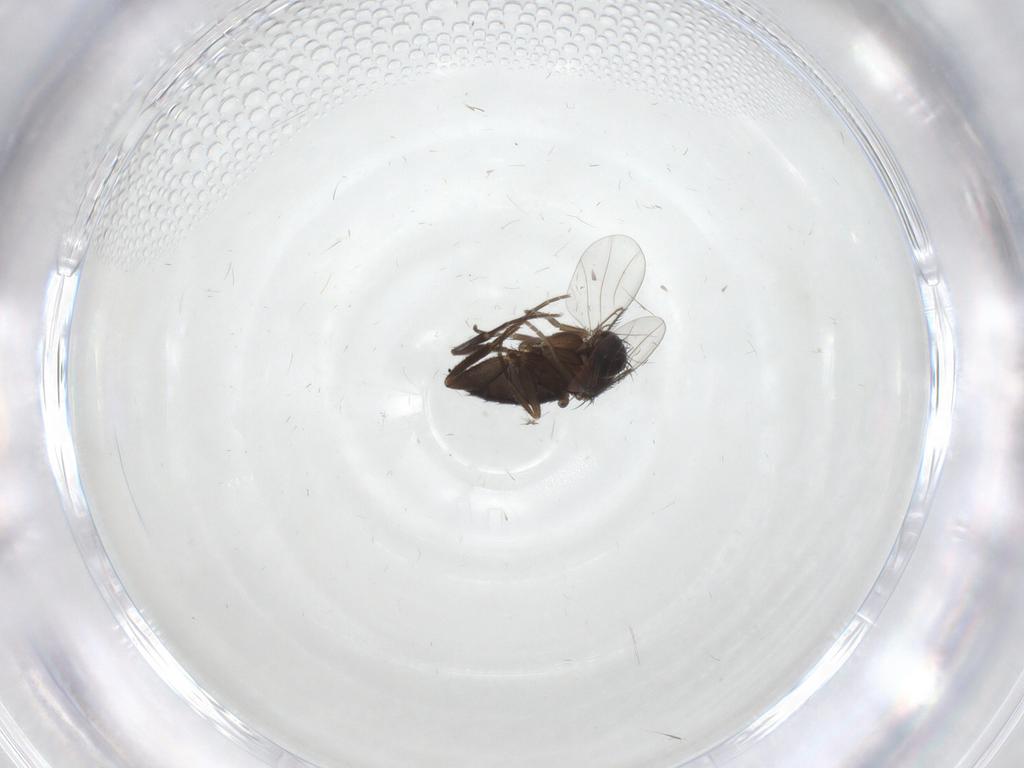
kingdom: Animalia
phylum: Arthropoda
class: Insecta
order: Diptera
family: Phoridae
